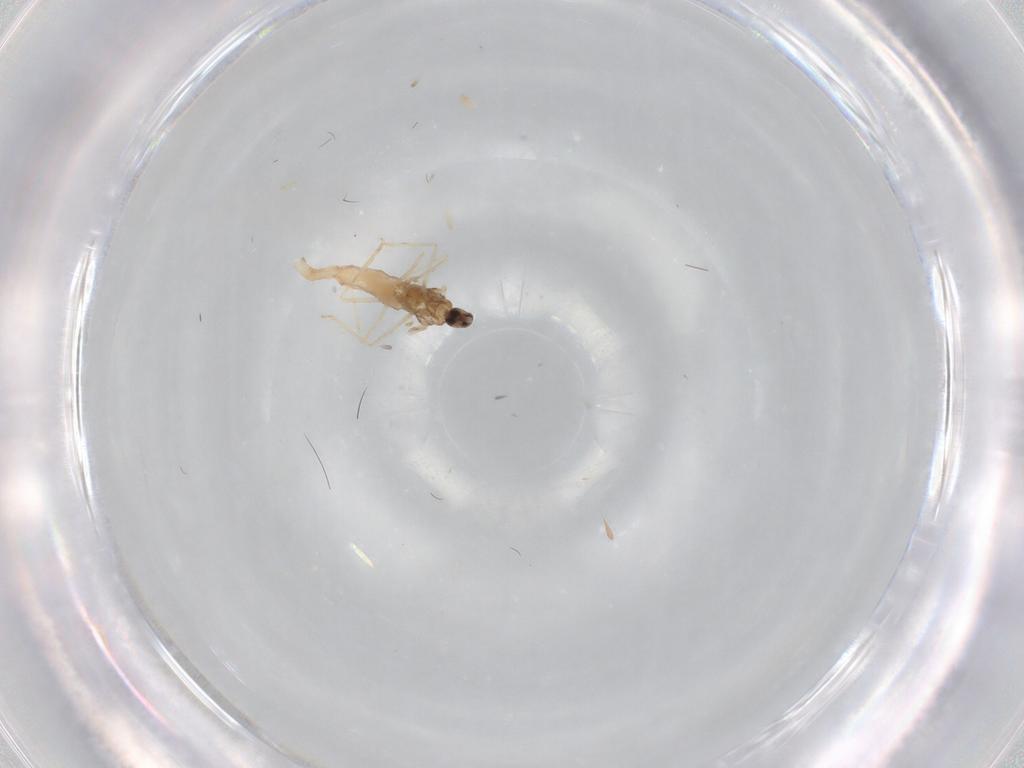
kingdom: Animalia
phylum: Arthropoda
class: Insecta
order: Diptera
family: Cecidomyiidae
